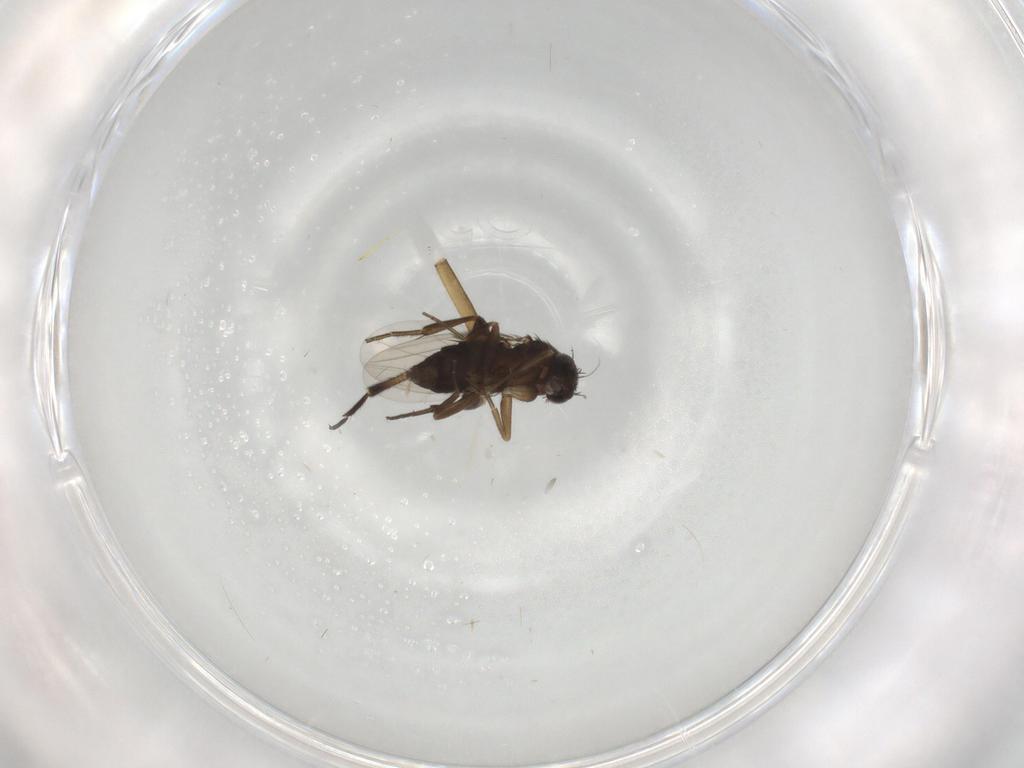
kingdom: Animalia
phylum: Arthropoda
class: Insecta
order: Diptera
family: Phoridae
